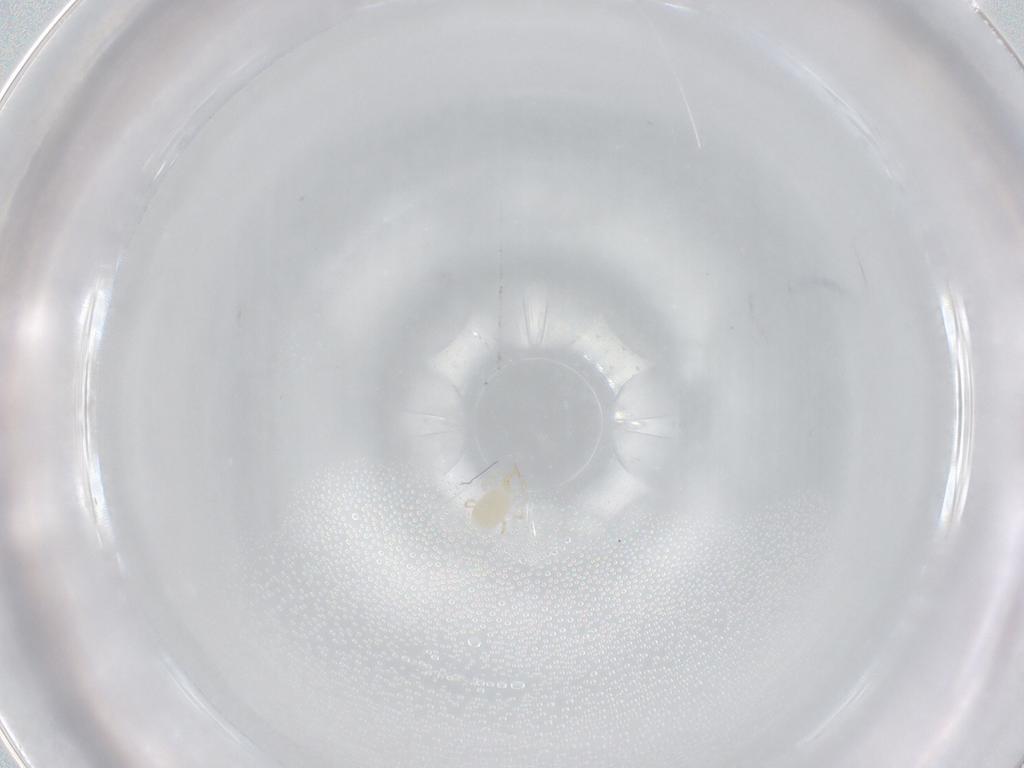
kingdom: Animalia
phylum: Arthropoda
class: Arachnida
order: Mesostigmata
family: Phytoseiidae
